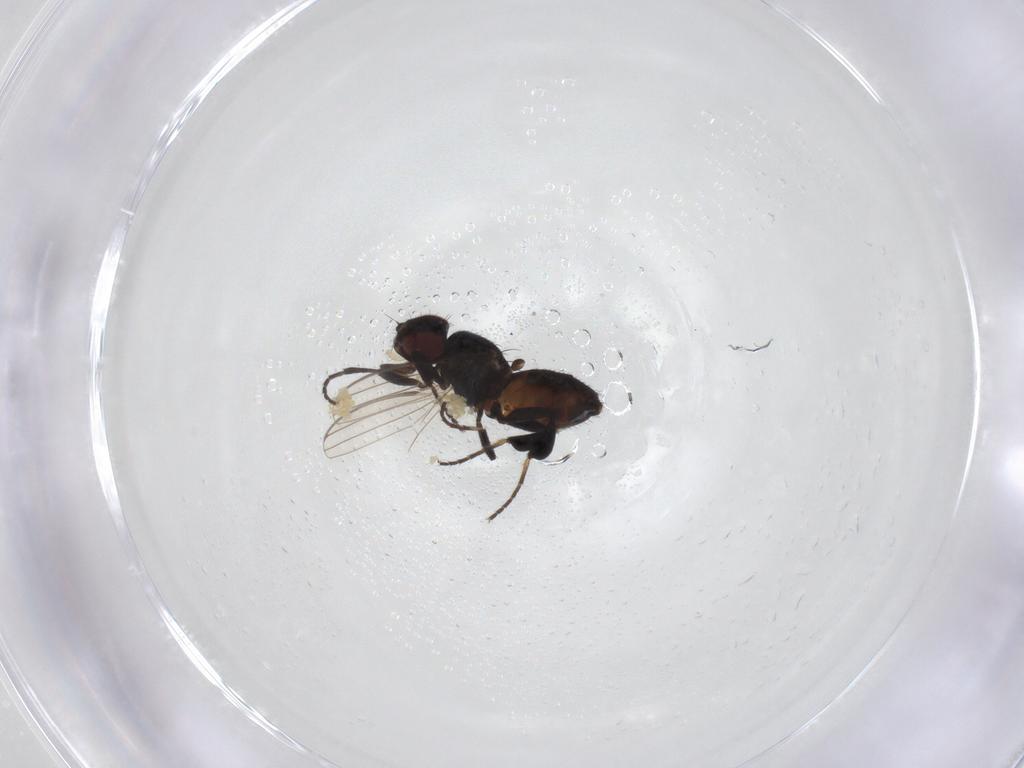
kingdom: Animalia
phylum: Arthropoda
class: Insecta
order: Diptera
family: Milichiidae
